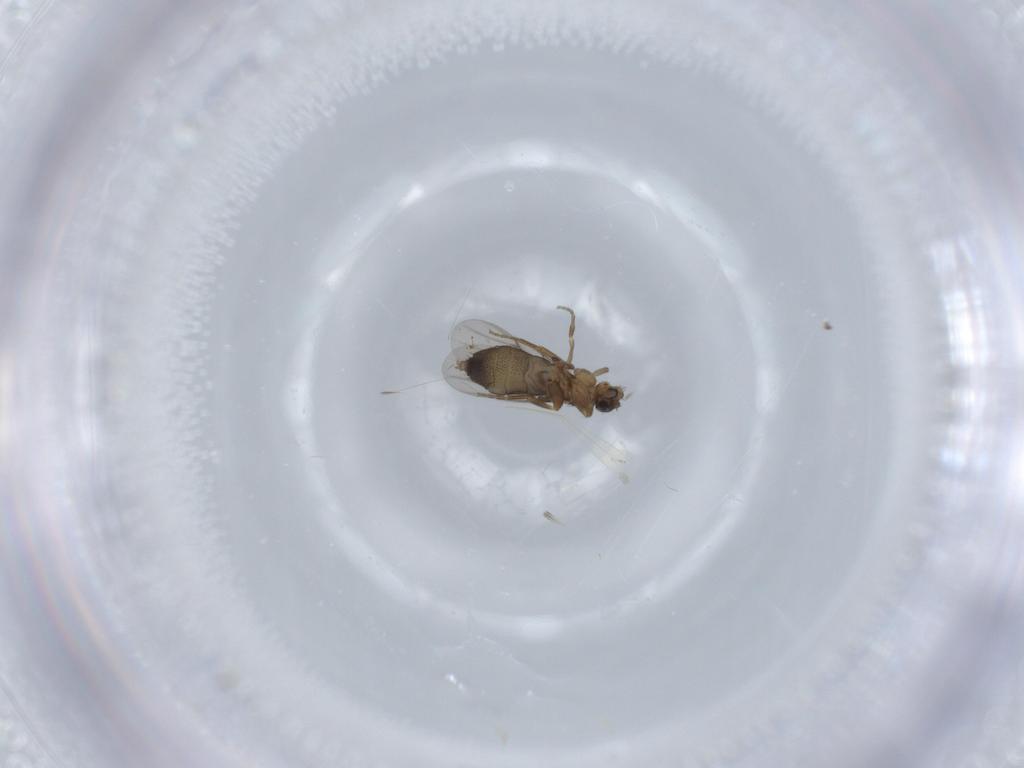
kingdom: Animalia
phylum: Arthropoda
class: Insecta
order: Diptera
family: Phoridae
